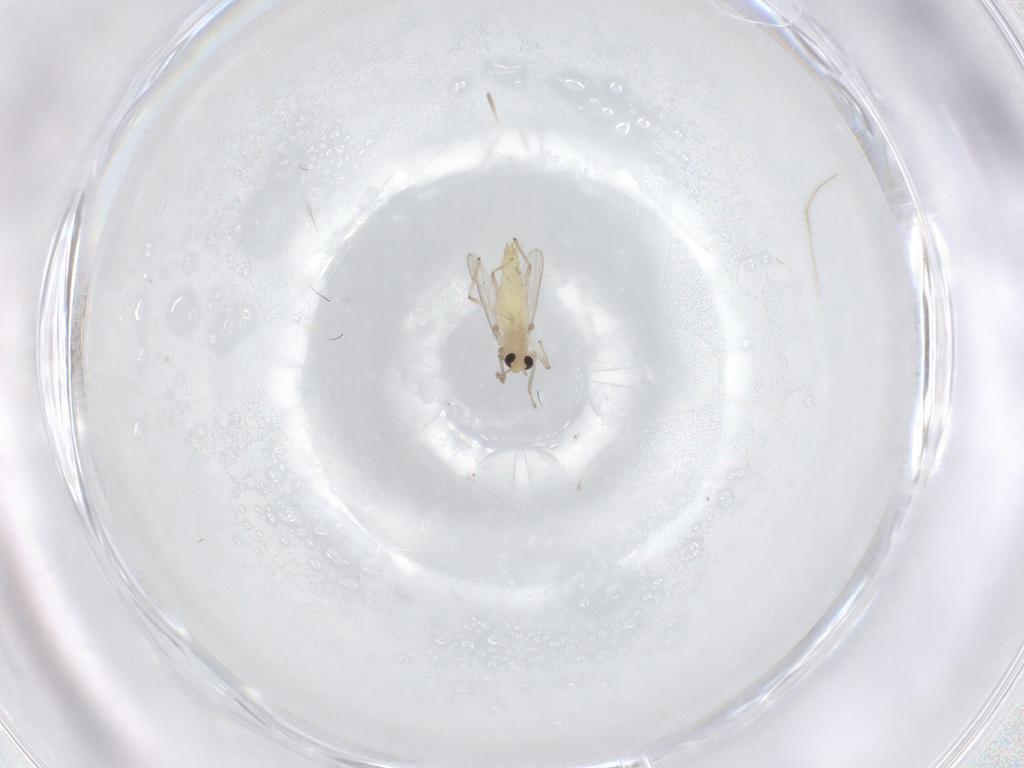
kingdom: Animalia
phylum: Arthropoda
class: Insecta
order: Diptera
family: Chironomidae
